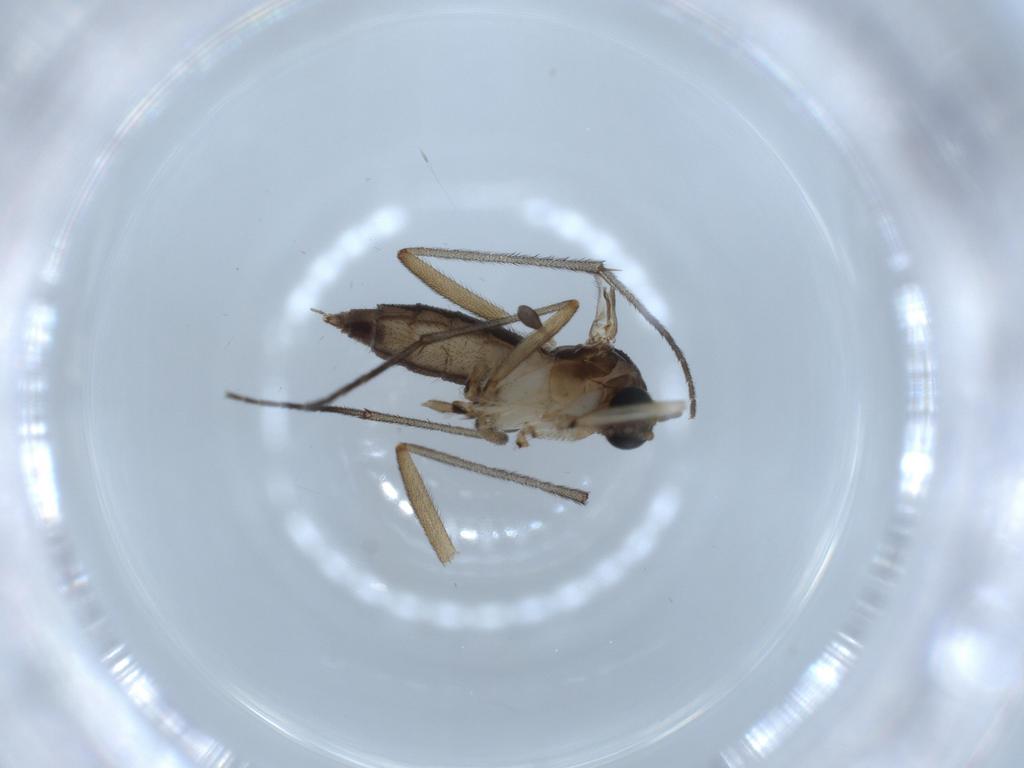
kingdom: Animalia
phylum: Arthropoda
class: Insecta
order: Diptera
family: Sciaridae
